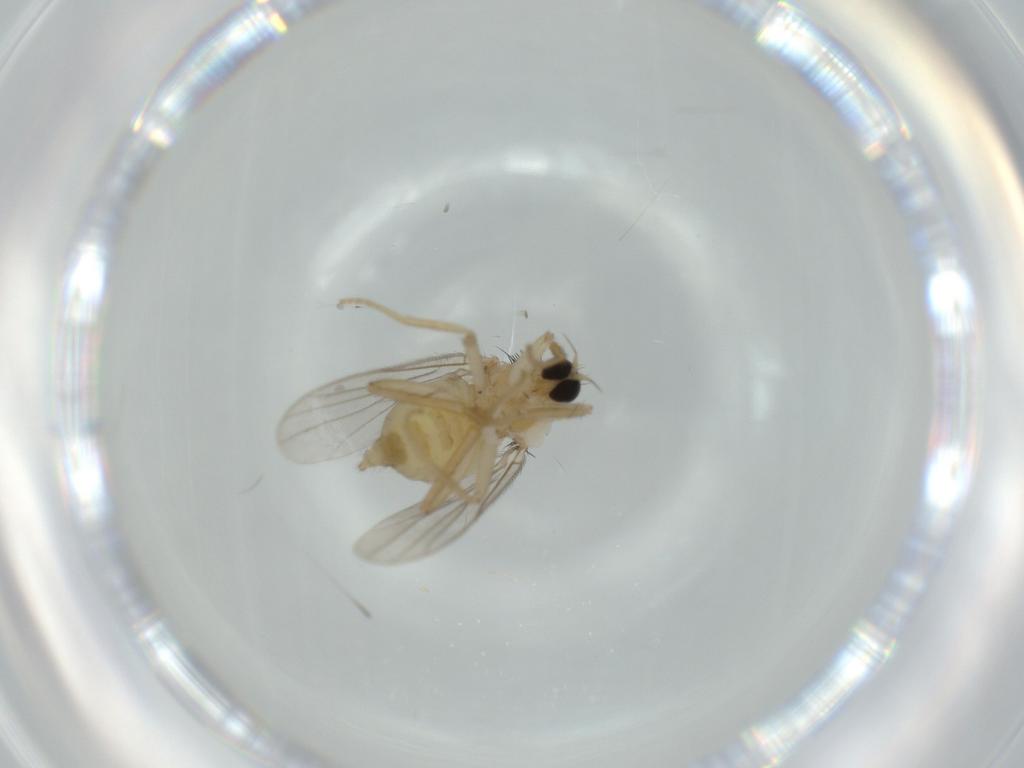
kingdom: Animalia
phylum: Arthropoda
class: Insecta
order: Diptera
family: Hybotidae
